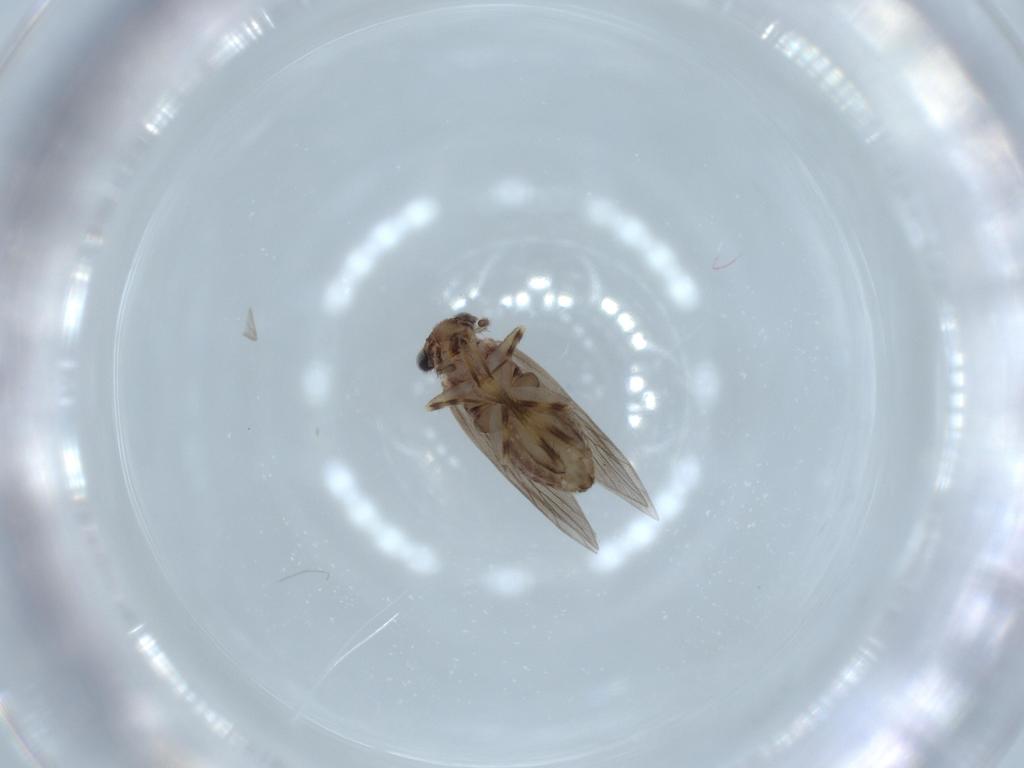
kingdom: Animalia
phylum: Arthropoda
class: Insecta
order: Psocodea
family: Lepidopsocidae
